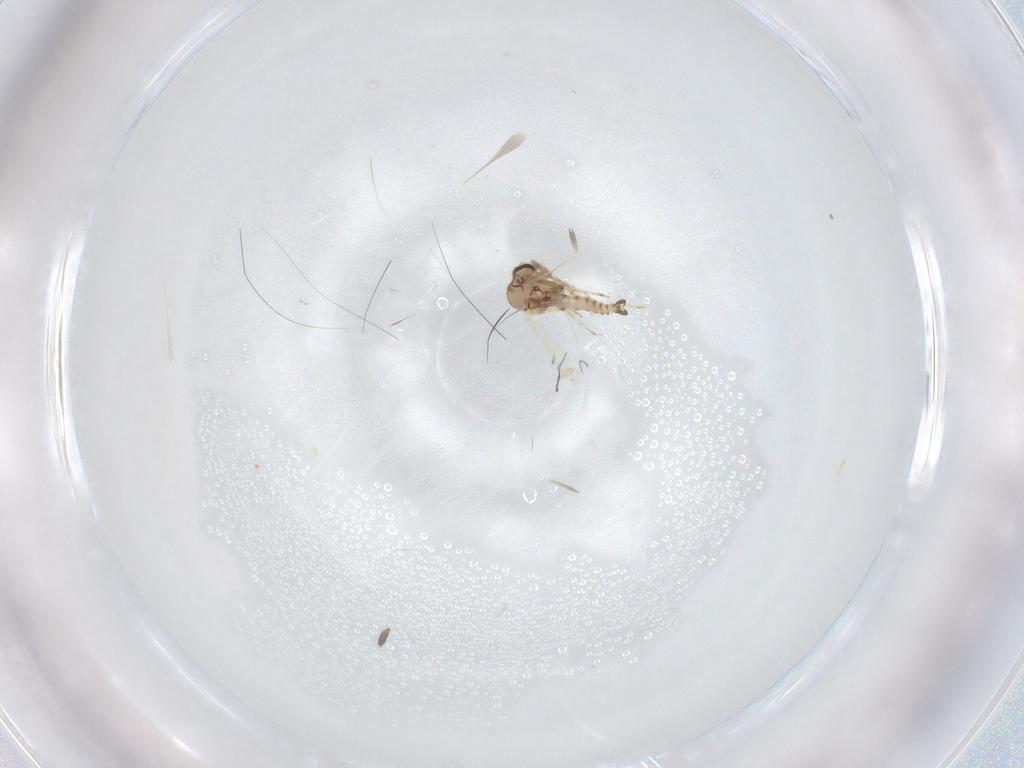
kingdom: Animalia
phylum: Arthropoda
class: Insecta
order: Diptera
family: Ceratopogonidae
